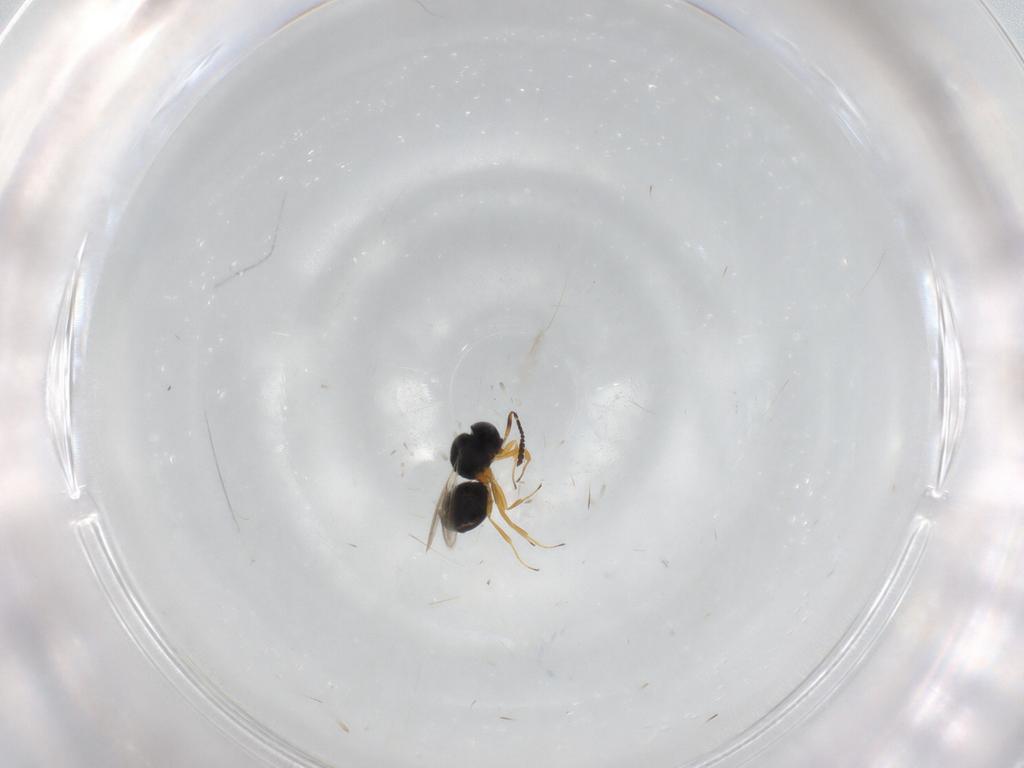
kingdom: Animalia
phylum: Arthropoda
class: Insecta
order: Hymenoptera
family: Scelionidae
